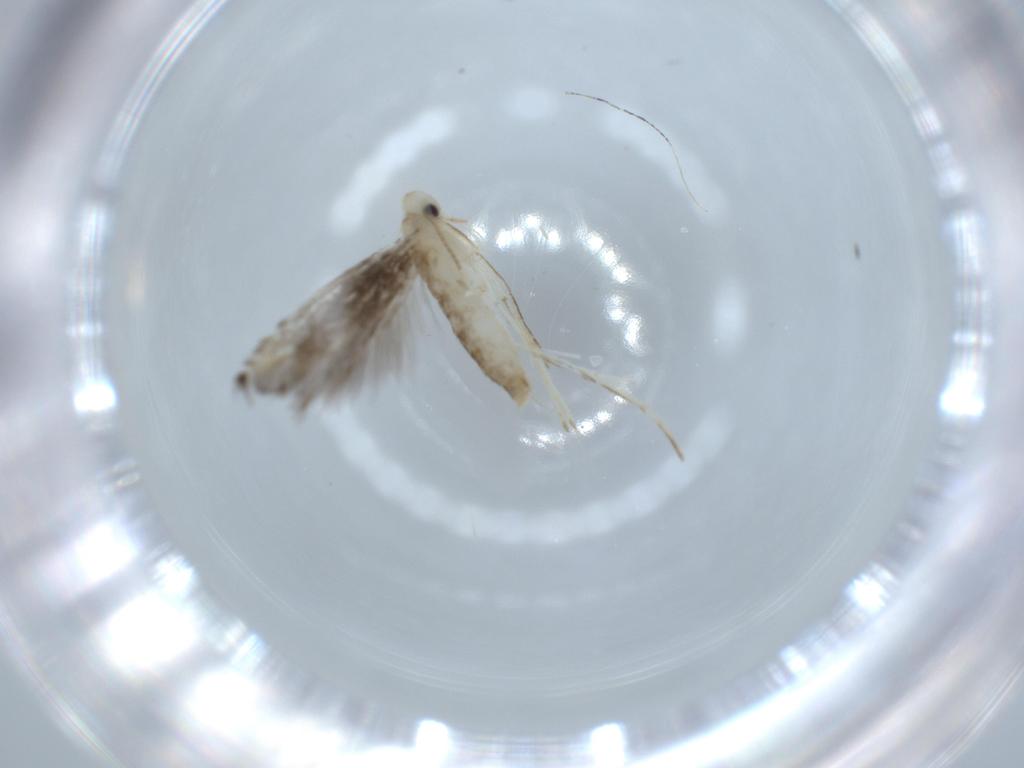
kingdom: Animalia
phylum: Arthropoda
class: Insecta
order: Lepidoptera
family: Gracillariidae
